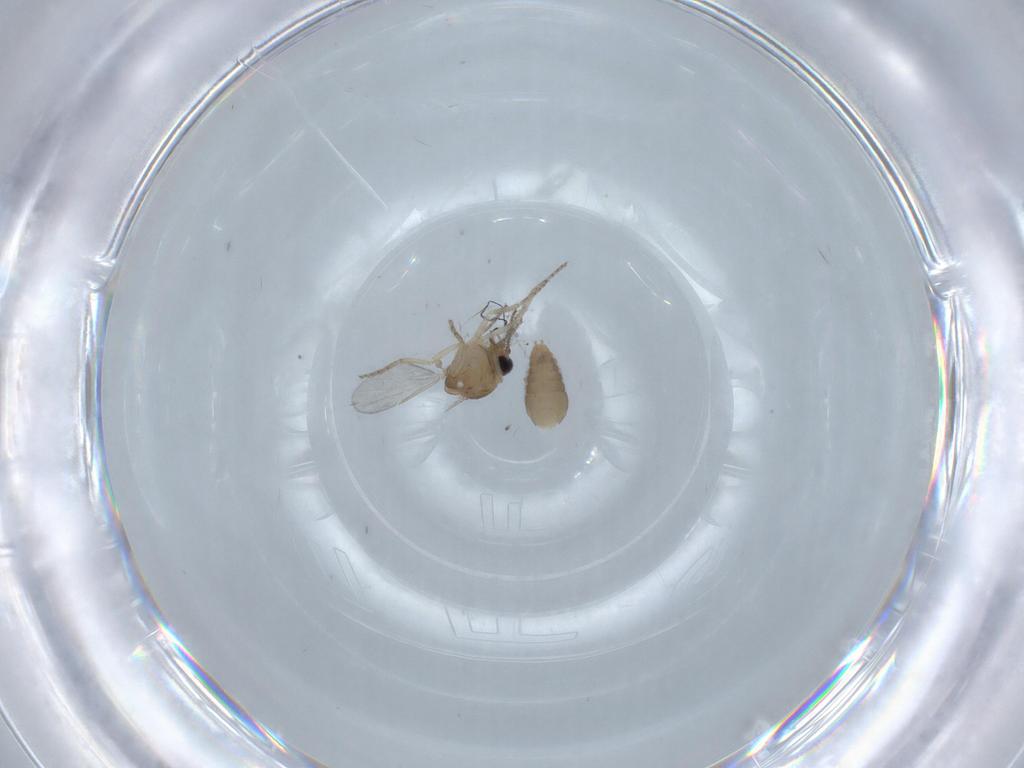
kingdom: Animalia
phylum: Arthropoda
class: Insecta
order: Diptera
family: Ceratopogonidae
